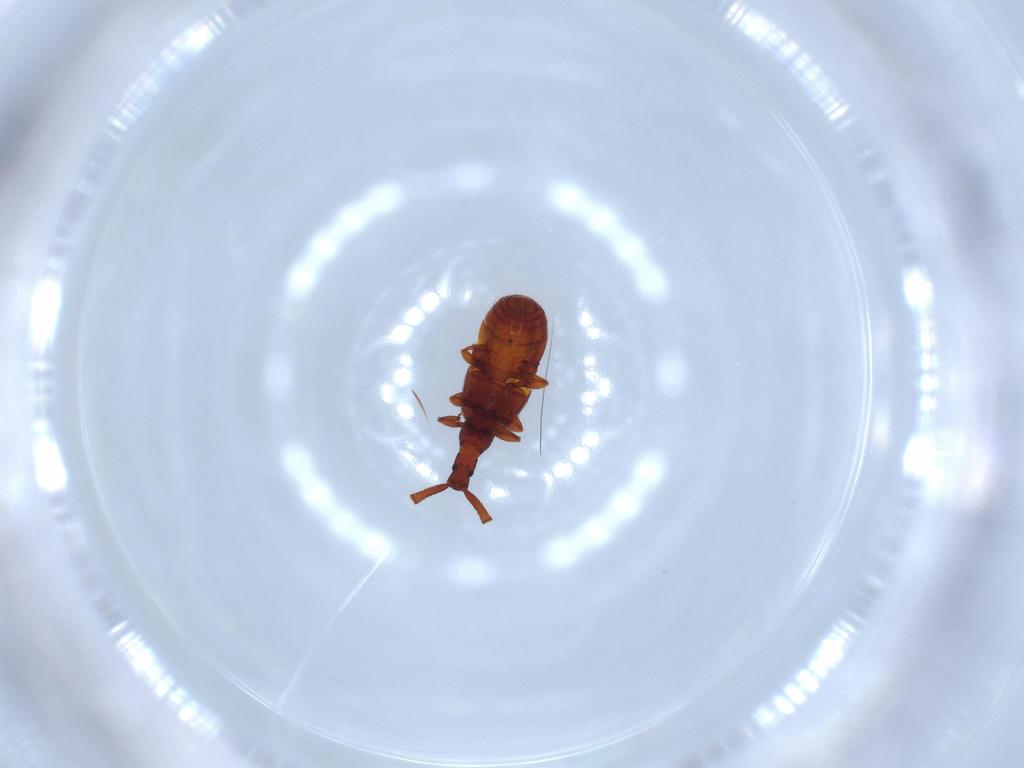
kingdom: Animalia
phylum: Arthropoda
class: Insecta
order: Coleoptera
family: Staphylinidae
